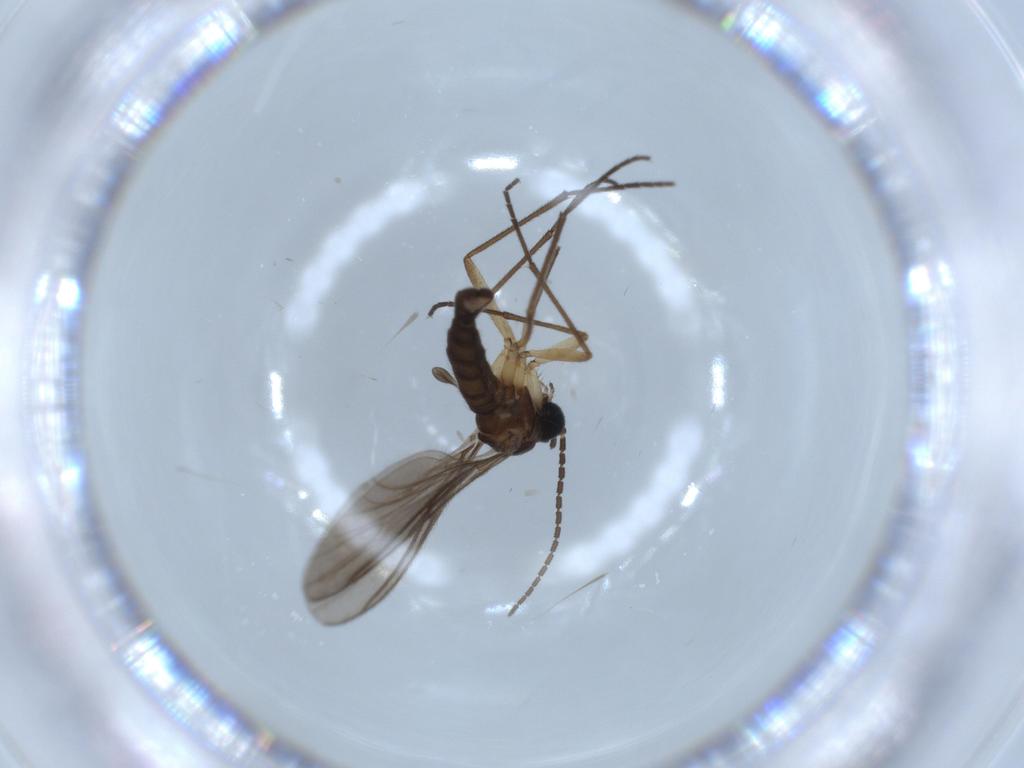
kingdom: Animalia
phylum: Arthropoda
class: Insecta
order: Diptera
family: Sciaridae
